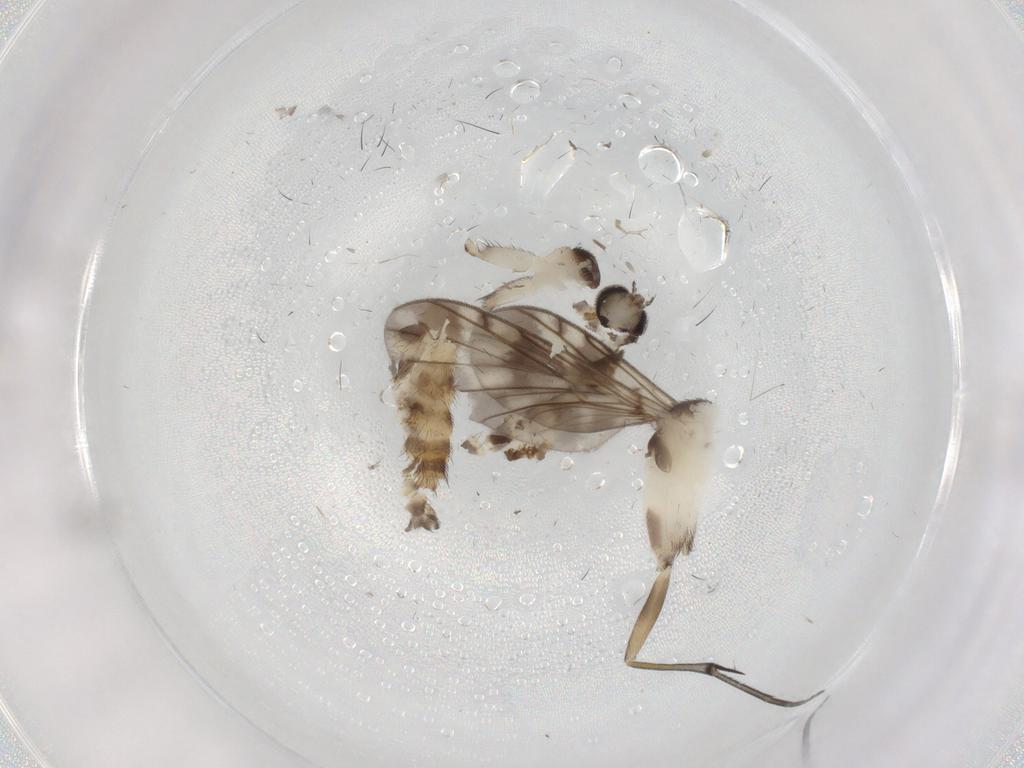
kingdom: Animalia
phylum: Arthropoda
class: Insecta
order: Diptera
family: Keroplatidae
